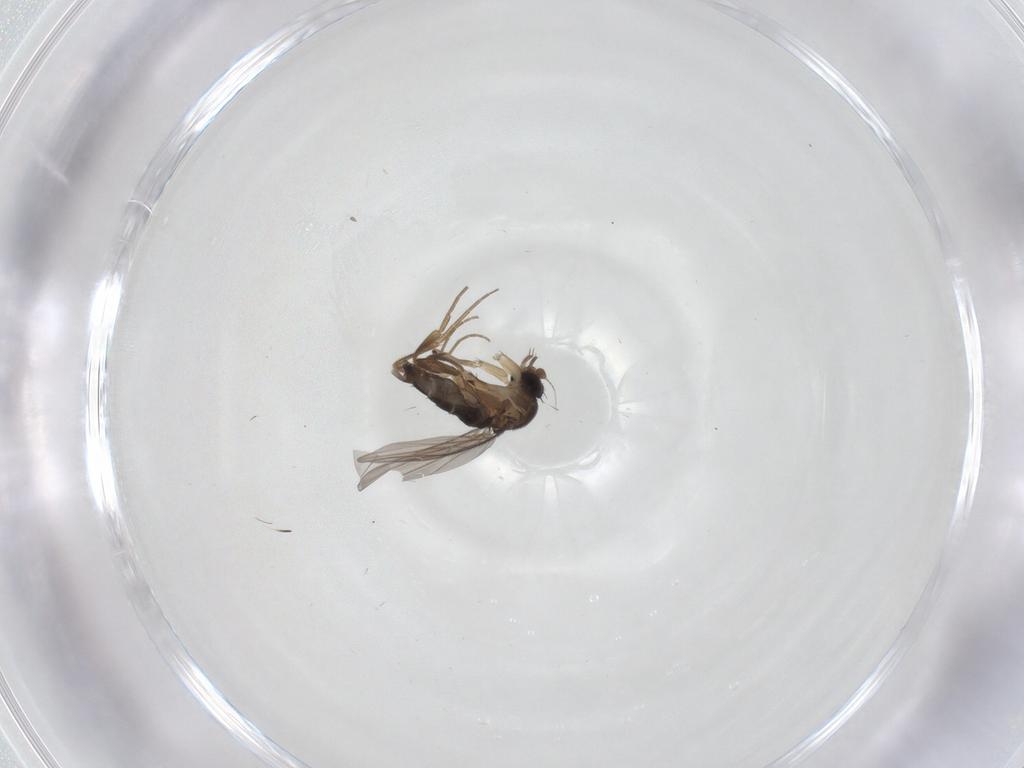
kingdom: Animalia
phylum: Arthropoda
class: Insecta
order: Diptera
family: Phoridae
